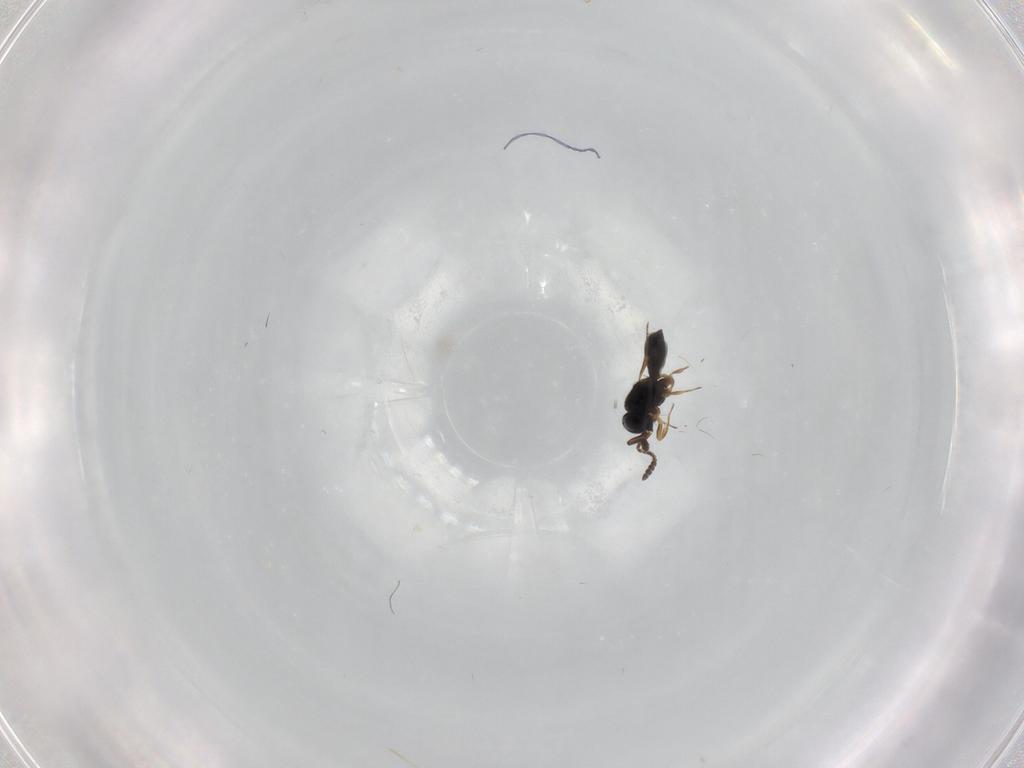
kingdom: Animalia
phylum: Arthropoda
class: Insecta
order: Hymenoptera
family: Scelionidae
